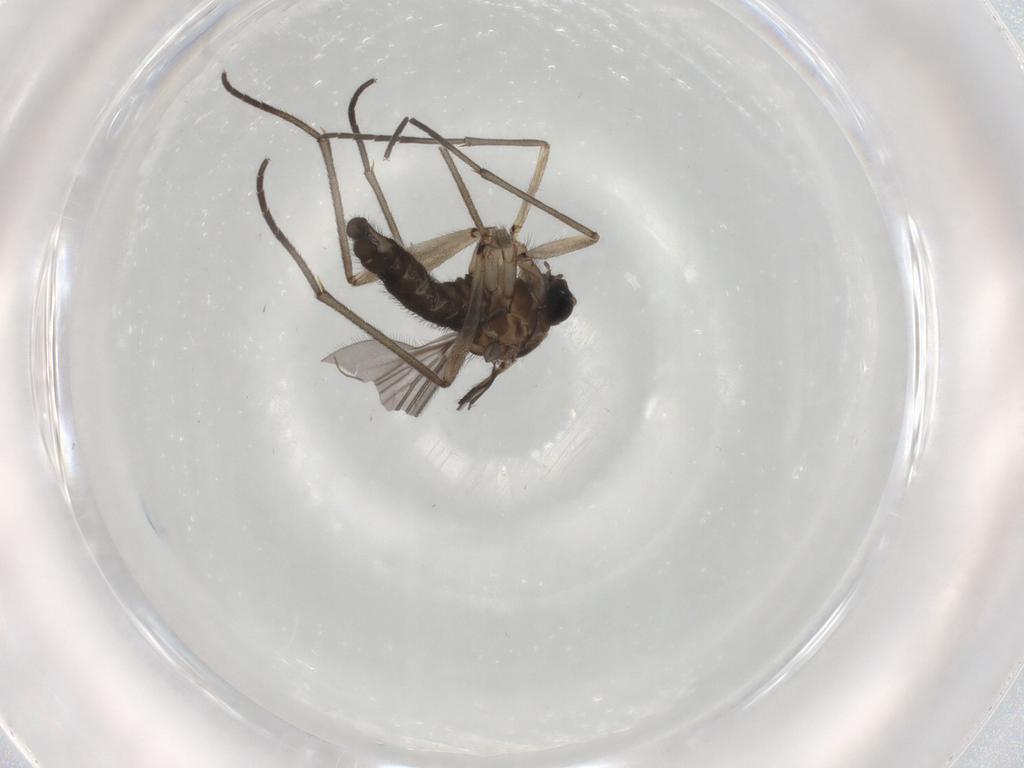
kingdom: Animalia
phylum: Arthropoda
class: Insecta
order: Diptera
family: Sciaridae
